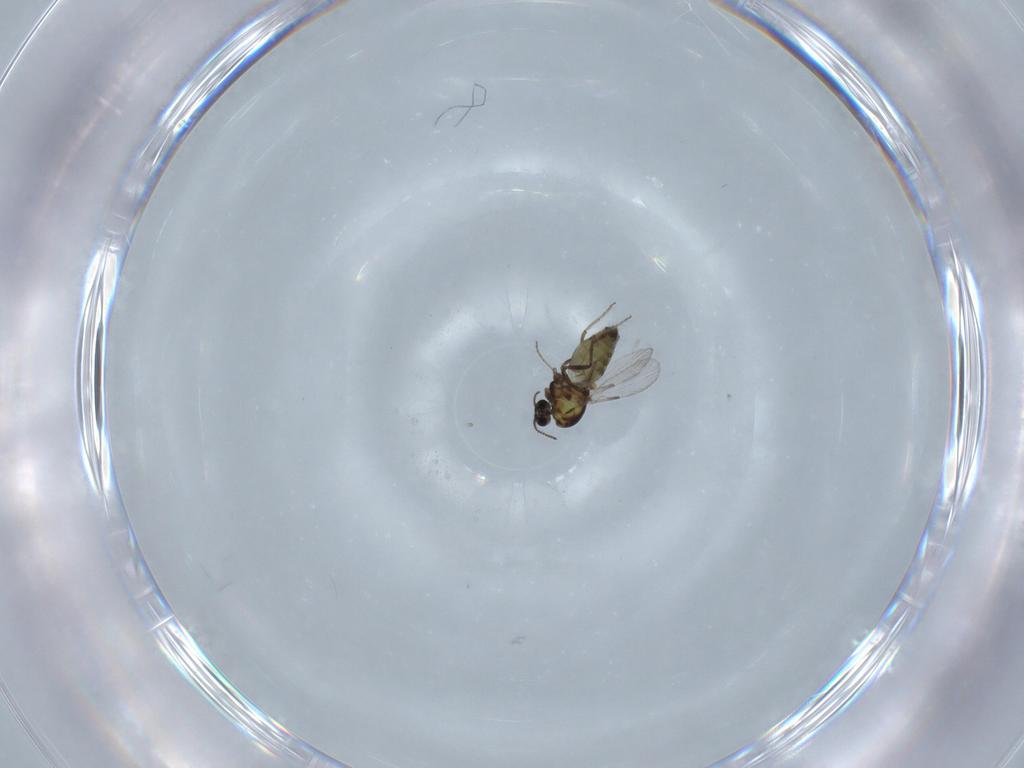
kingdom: Animalia
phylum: Arthropoda
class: Insecta
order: Diptera
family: Ceratopogonidae
